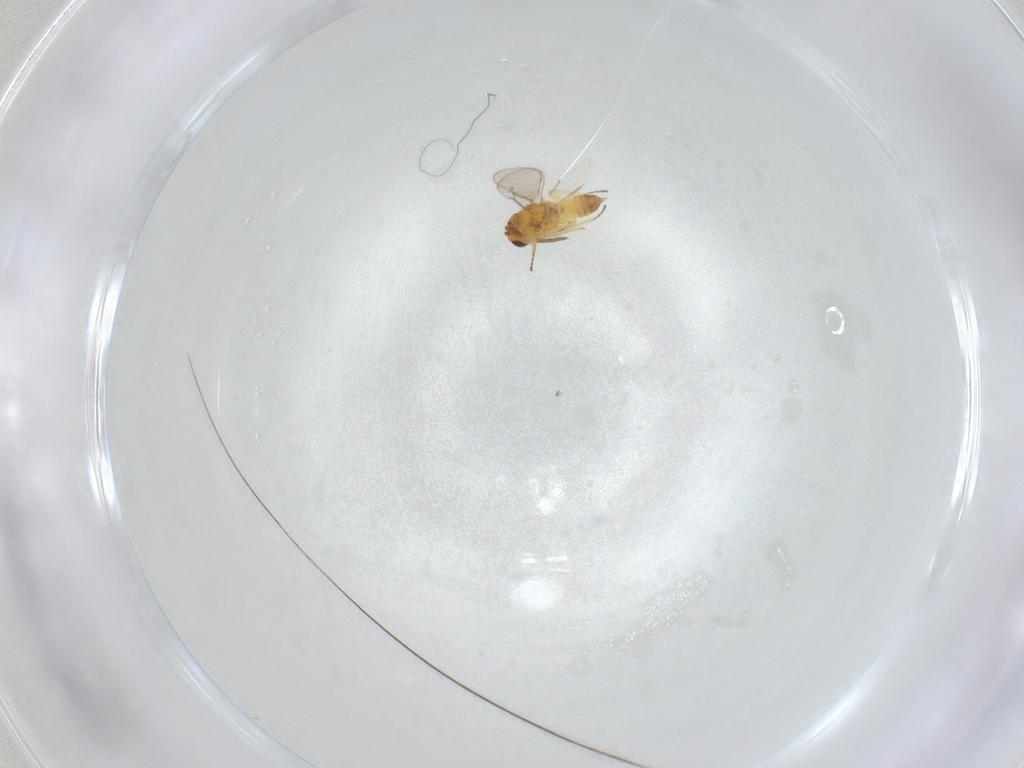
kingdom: Animalia
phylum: Arthropoda
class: Insecta
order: Hymenoptera
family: Eulophidae
